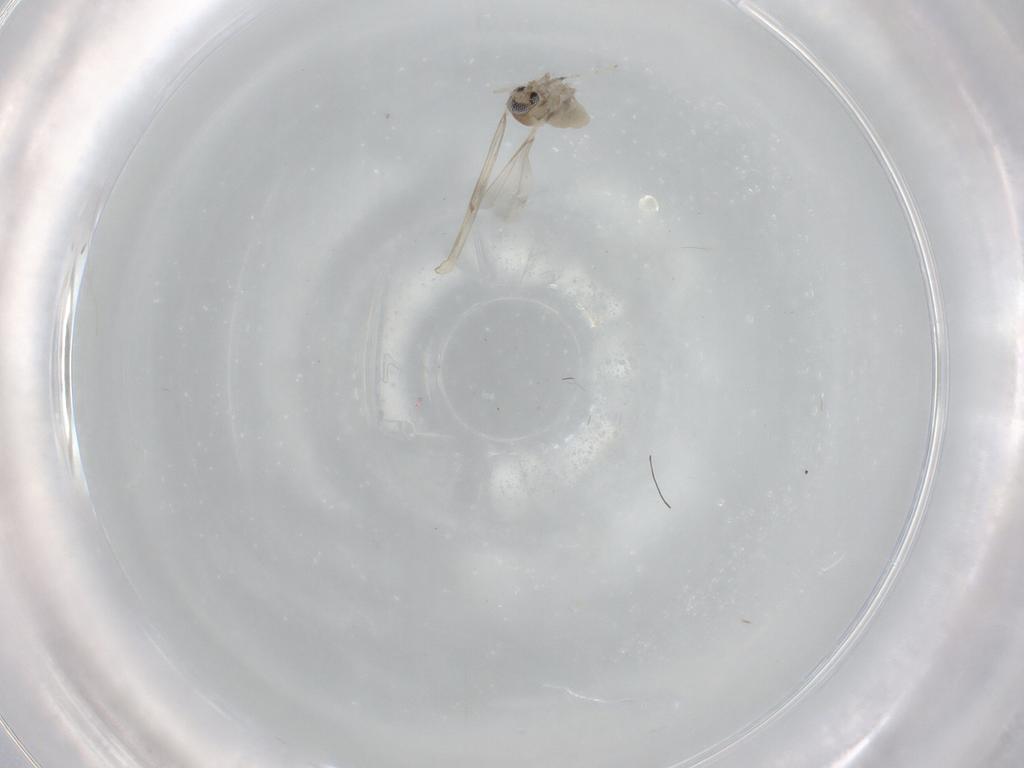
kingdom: Animalia
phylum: Arthropoda
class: Insecta
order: Diptera
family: Cecidomyiidae
